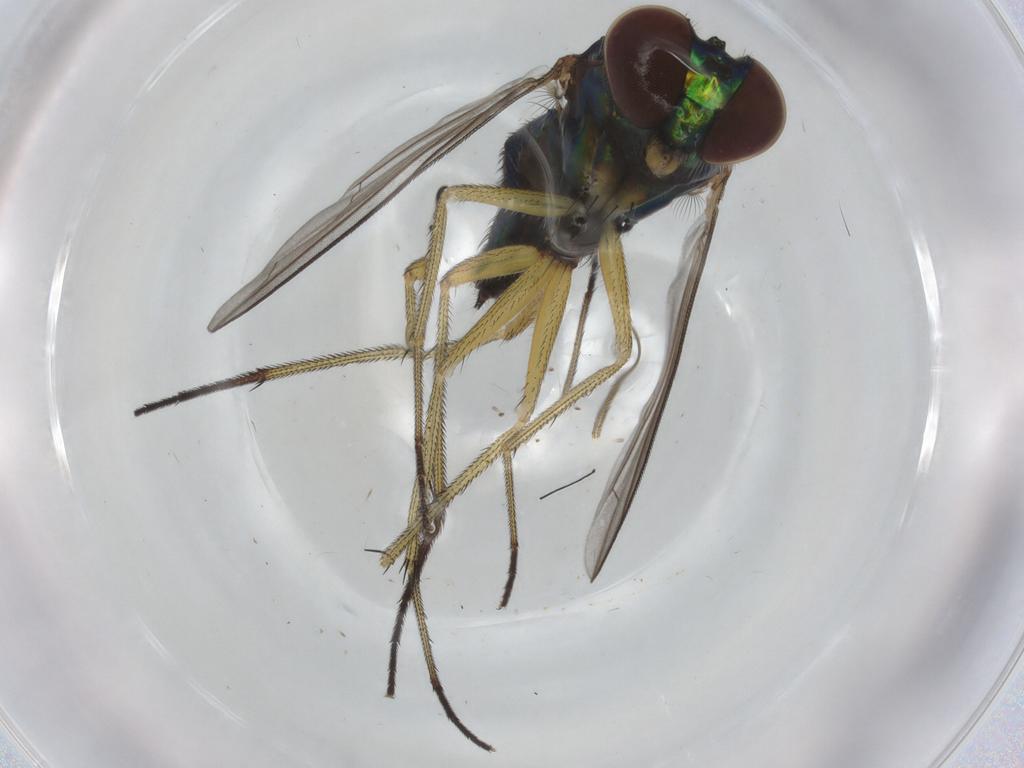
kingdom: Animalia
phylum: Arthropoda
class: Insecta
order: Diptera
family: Dolichopodidae
